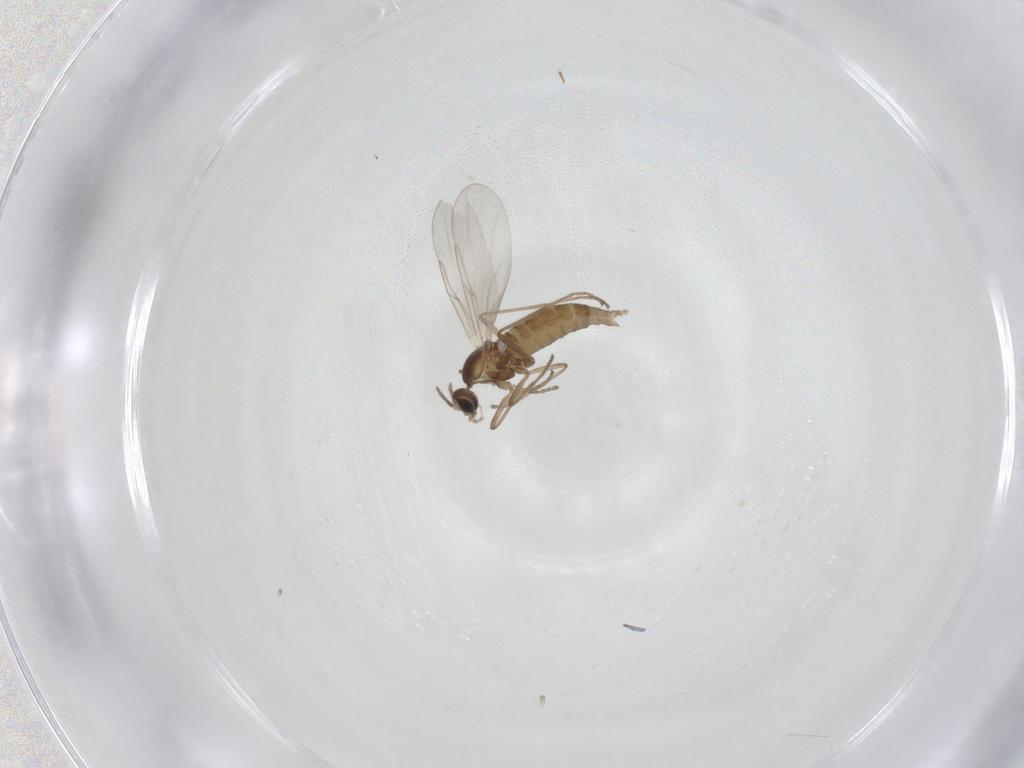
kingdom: Animalia
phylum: Arthropoda
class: Insecta
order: Diptera
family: Cecidomyiidae
